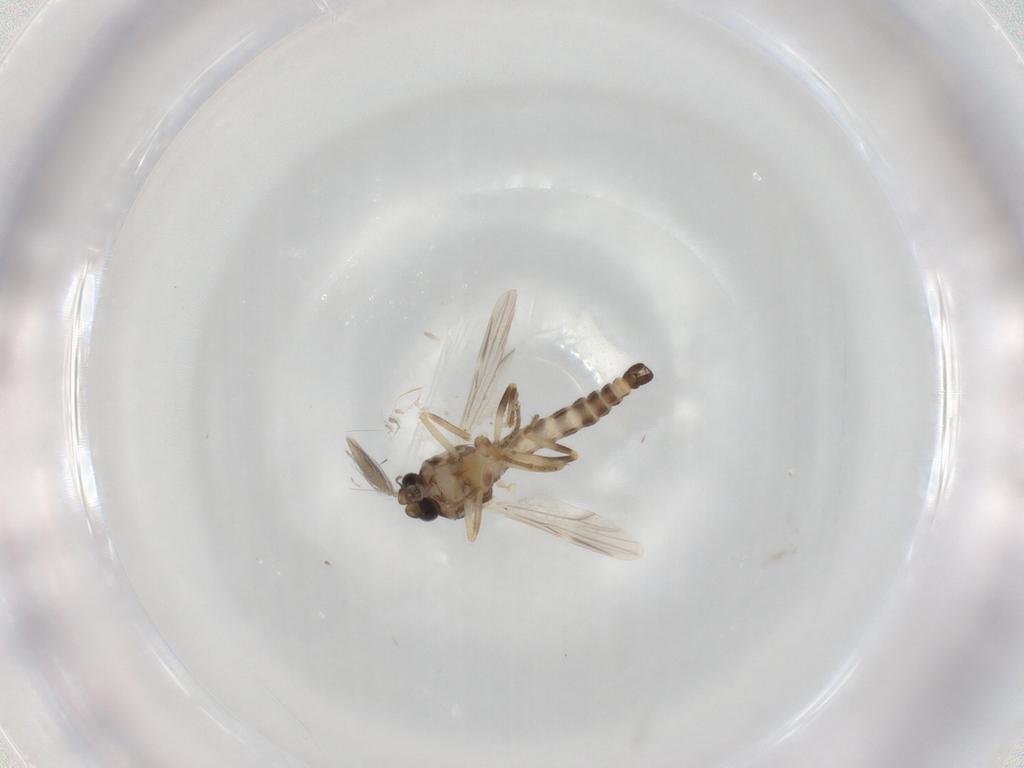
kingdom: Animalia
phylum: Arthropoda
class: Insecta
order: Diptera
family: Ceratopogonidae
